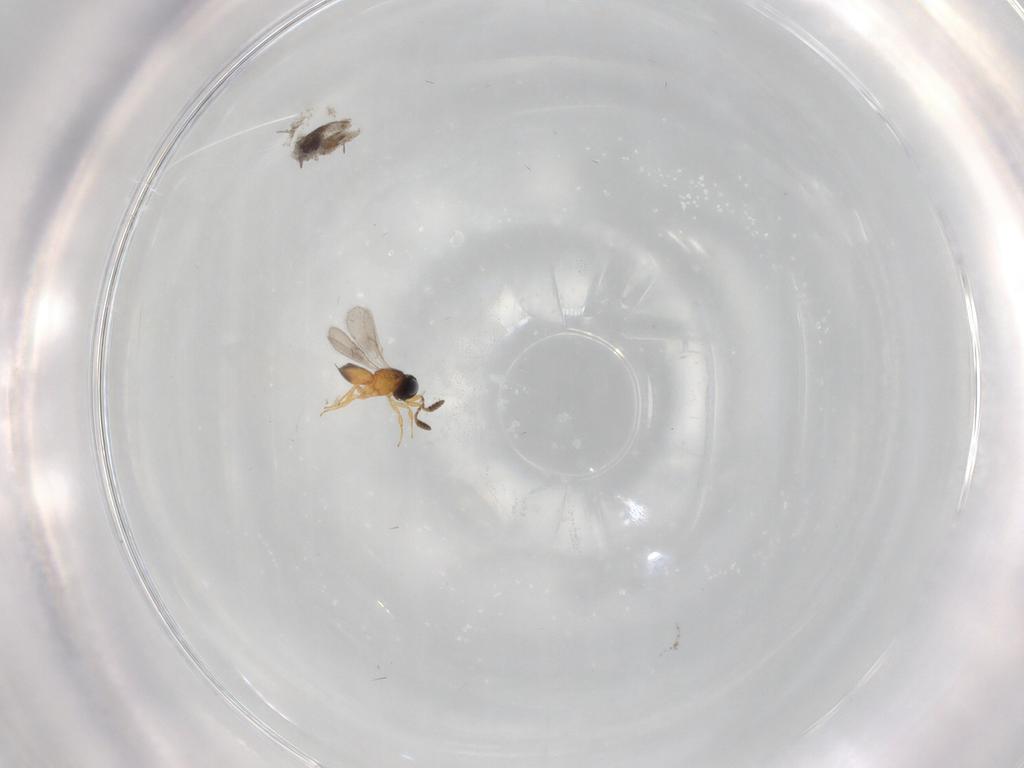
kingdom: Animalia
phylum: Arthropoda
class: Insecta
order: Hymenoptera
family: Scelionidae
